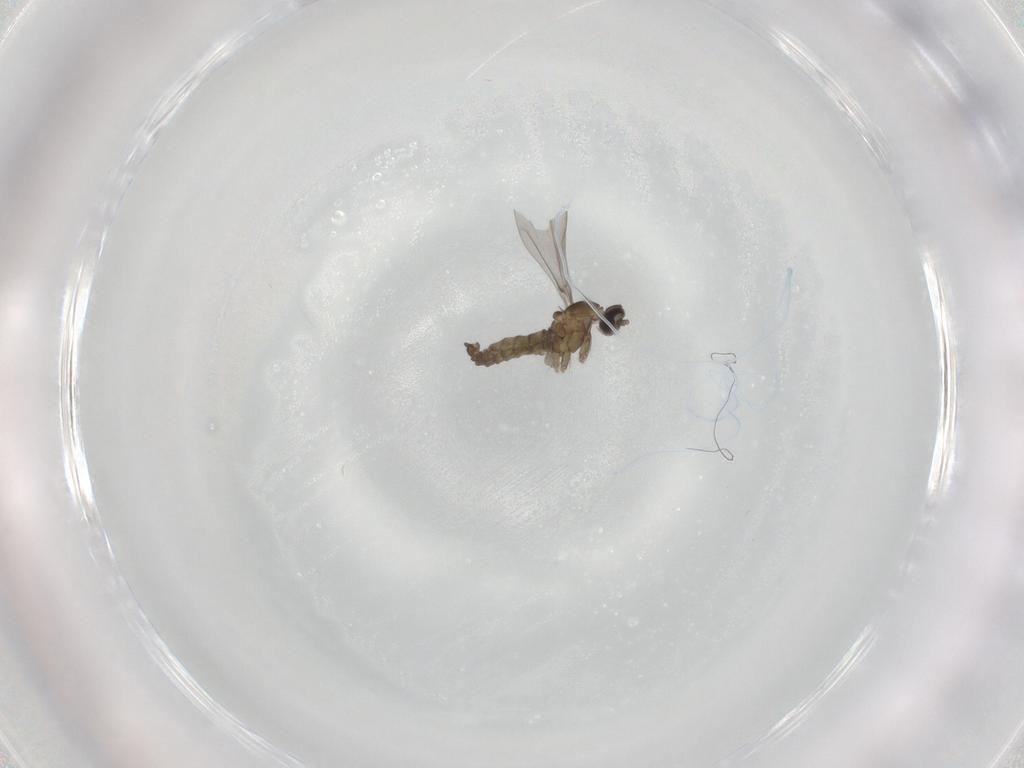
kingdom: Animalia
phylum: Arthropoda
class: Insecta
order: Diptera
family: Cecidomyiidae
